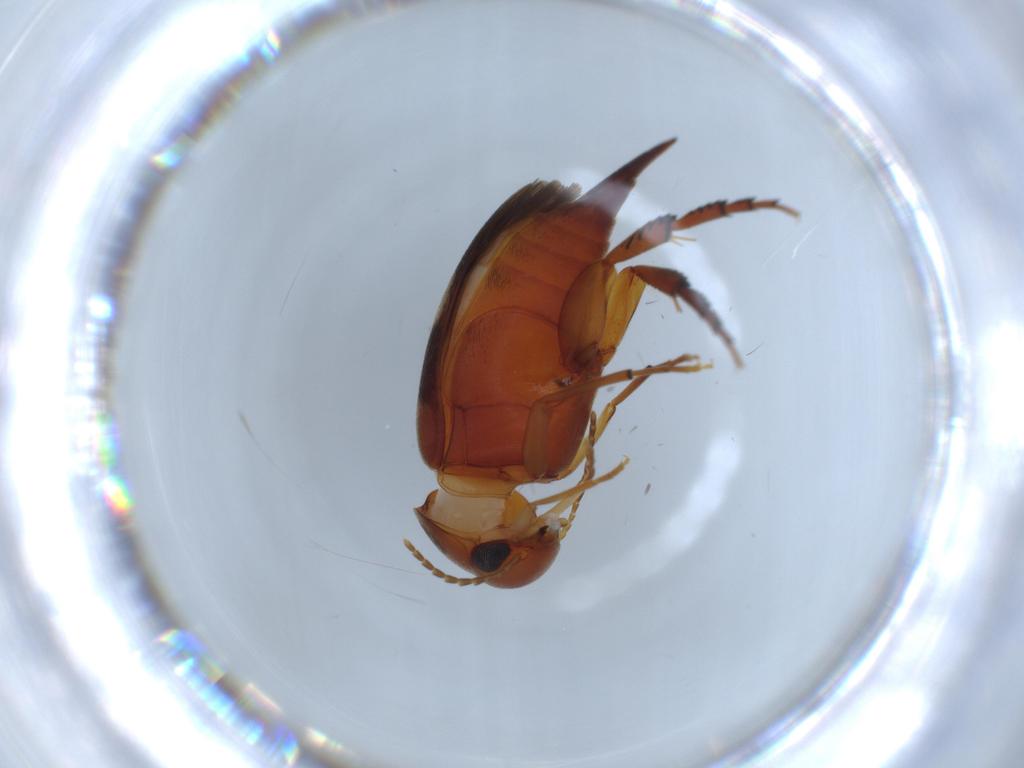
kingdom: Animalia
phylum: Arthropoda
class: Insecta
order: Coleoptera
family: Mordellidae
